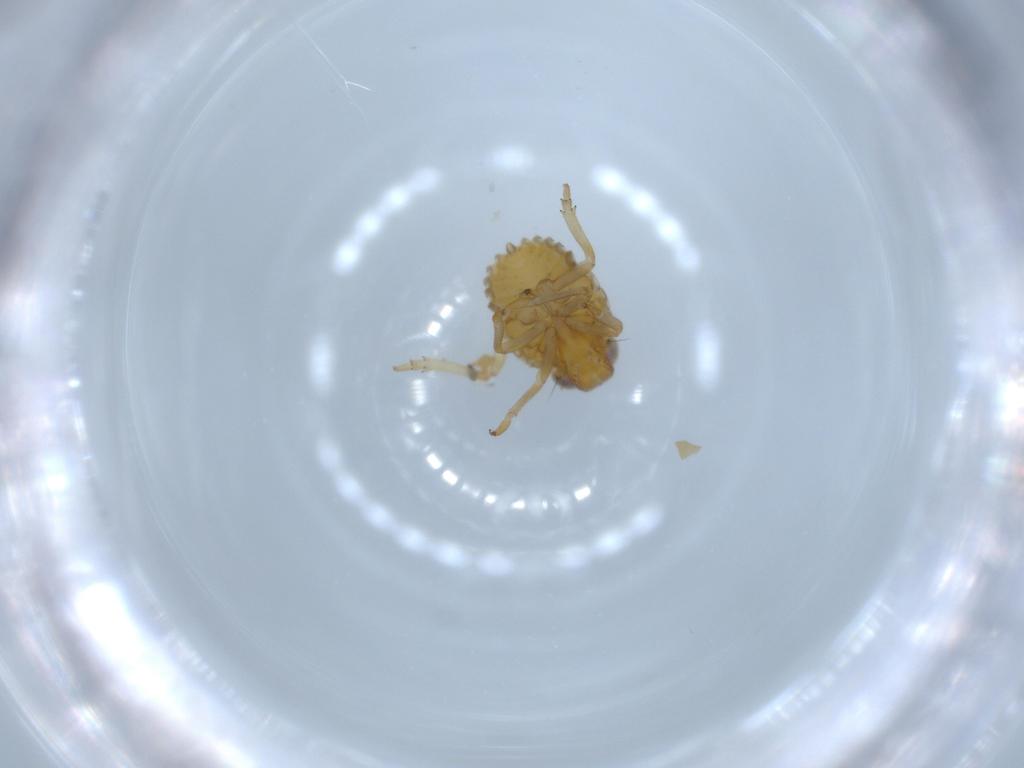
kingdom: Animalia
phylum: Arthropoda
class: Insecta
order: Hemiptera
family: Issidae
